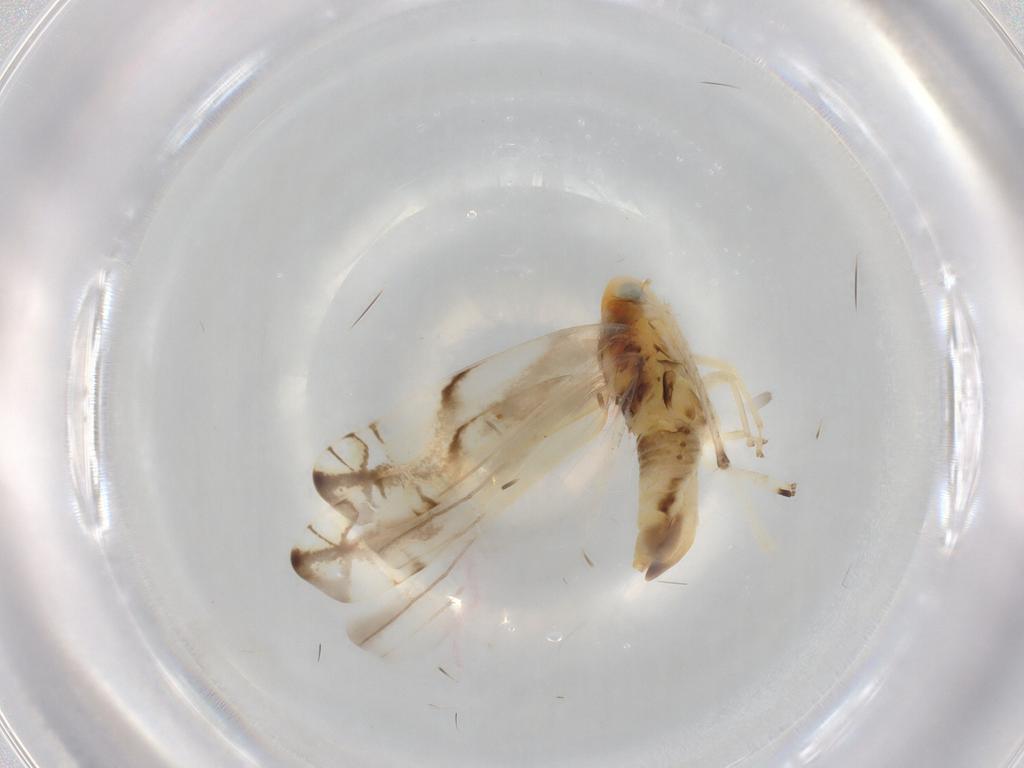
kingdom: Animalia
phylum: Arthropoda
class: Insecta
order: Hemiptera
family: Cicadellidae
